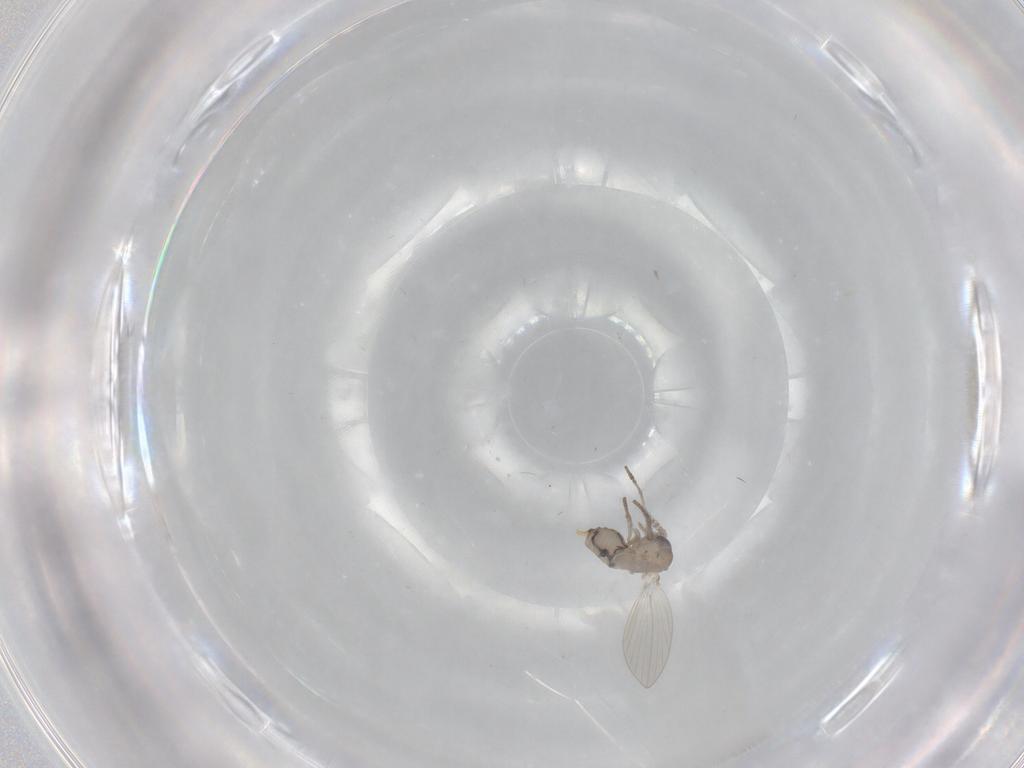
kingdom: Animalia
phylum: Arthropoda
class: Insecta
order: Diptera
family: Psychodidae
